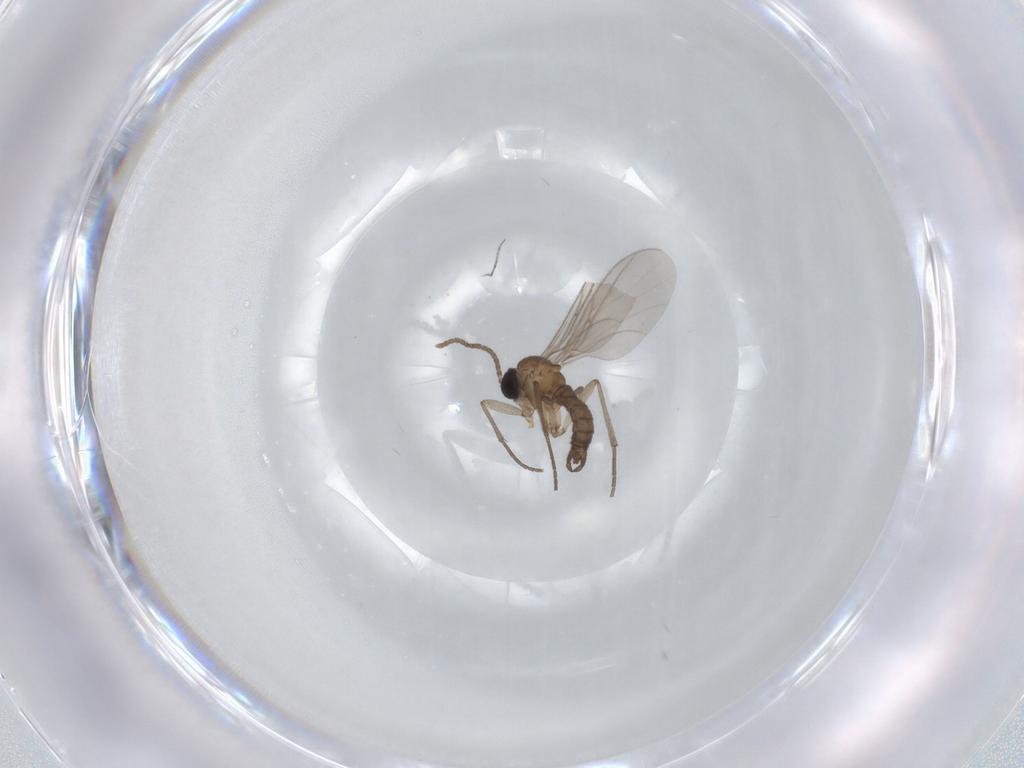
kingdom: Animalia
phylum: Arthropoda
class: Insecta
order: Diptera
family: Sciaridae
